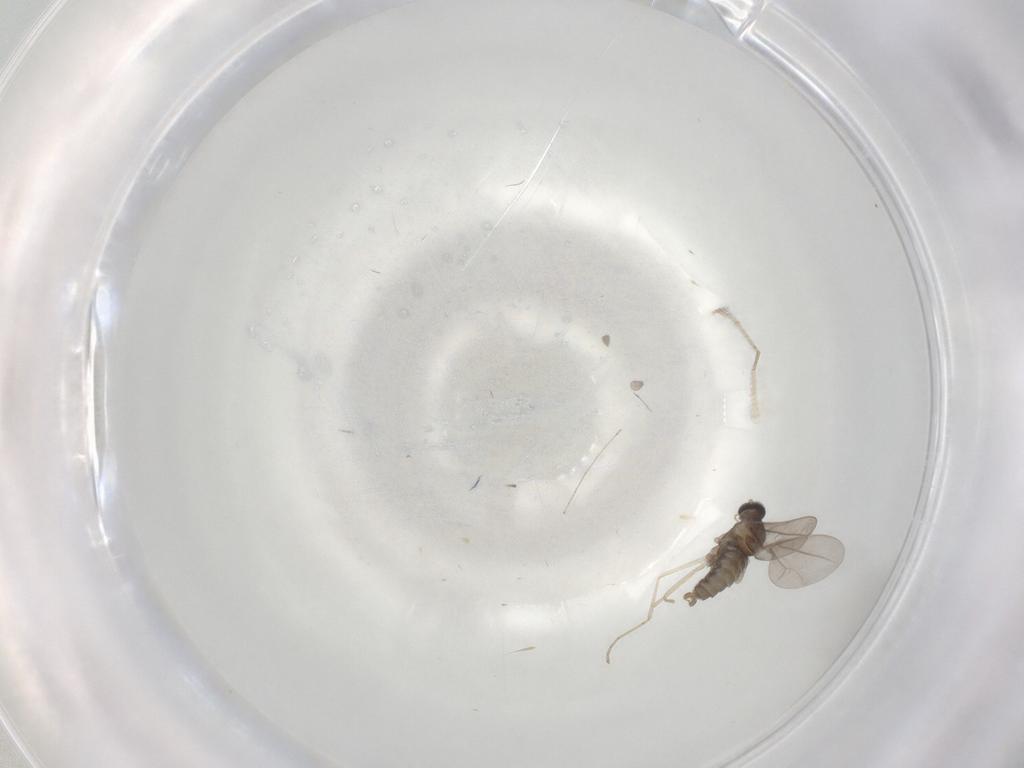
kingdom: Animalia
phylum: Arthropoda
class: Insecta
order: Diptera
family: Cecidomyiidae
